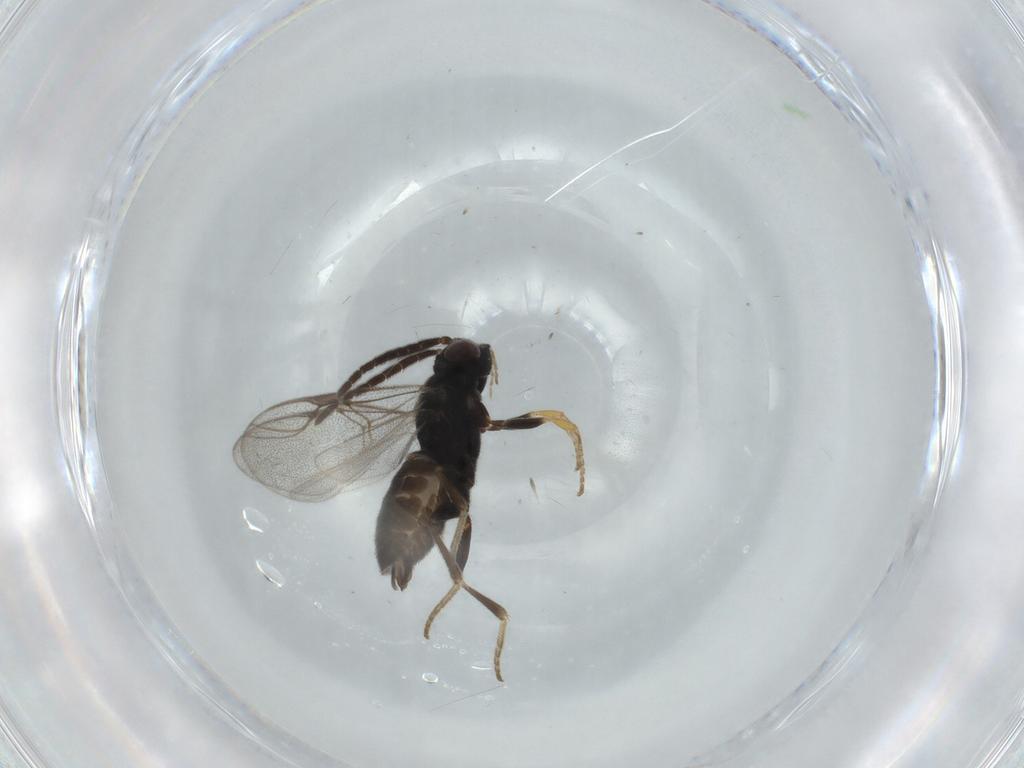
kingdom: Animalia
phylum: Arthropoda
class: Insecta
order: Hymenoptera
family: Dryinidae
